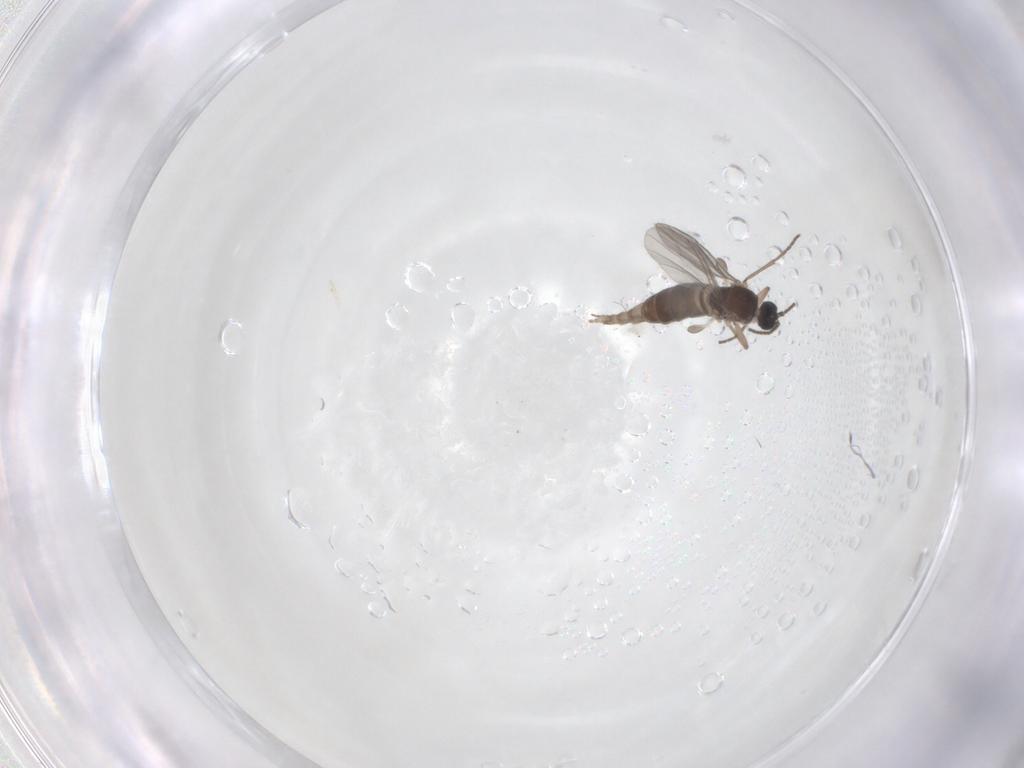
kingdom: Animalia
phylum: Arthropoda
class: Insecta
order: Diptera
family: Sciaridae
